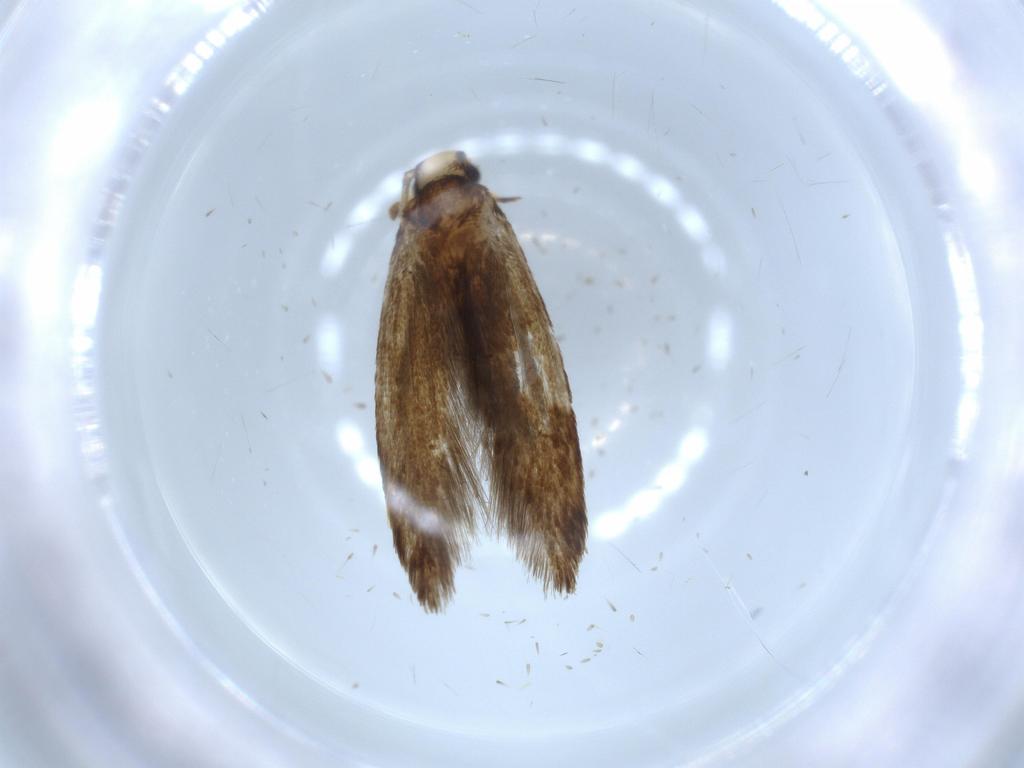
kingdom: Animalia
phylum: Arthropoda
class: Insecta
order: Lepidoptera
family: Tineidae
